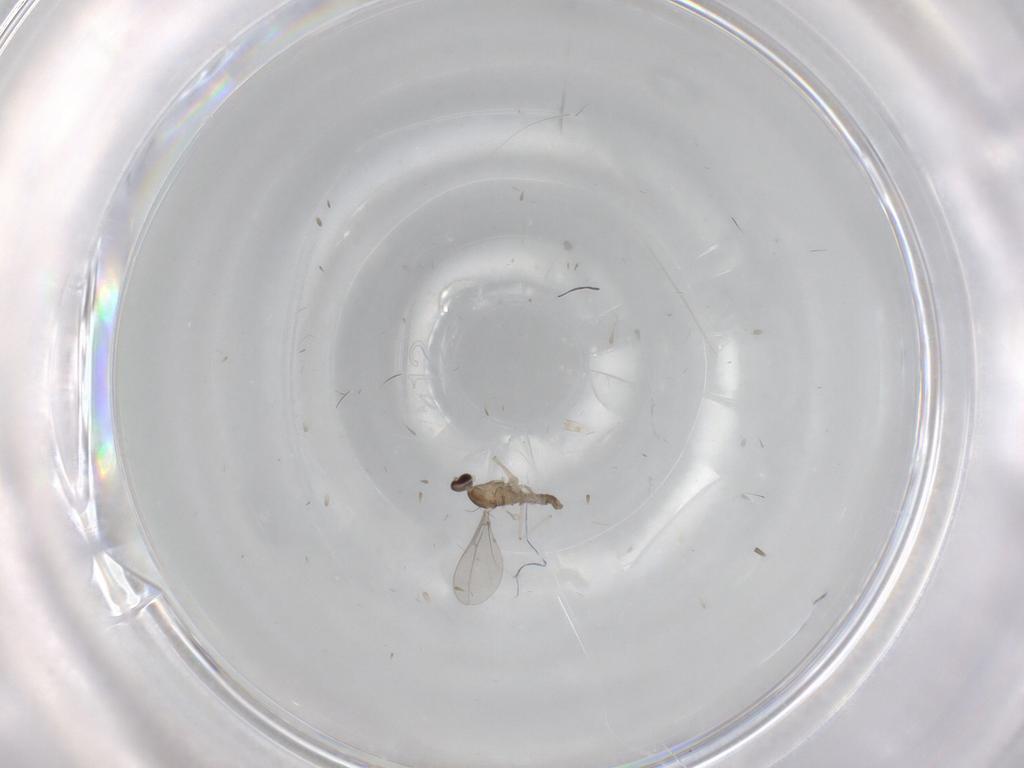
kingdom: Animalia
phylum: Arthropoda
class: Insecta
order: Diptera
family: Cecidomyiidae
